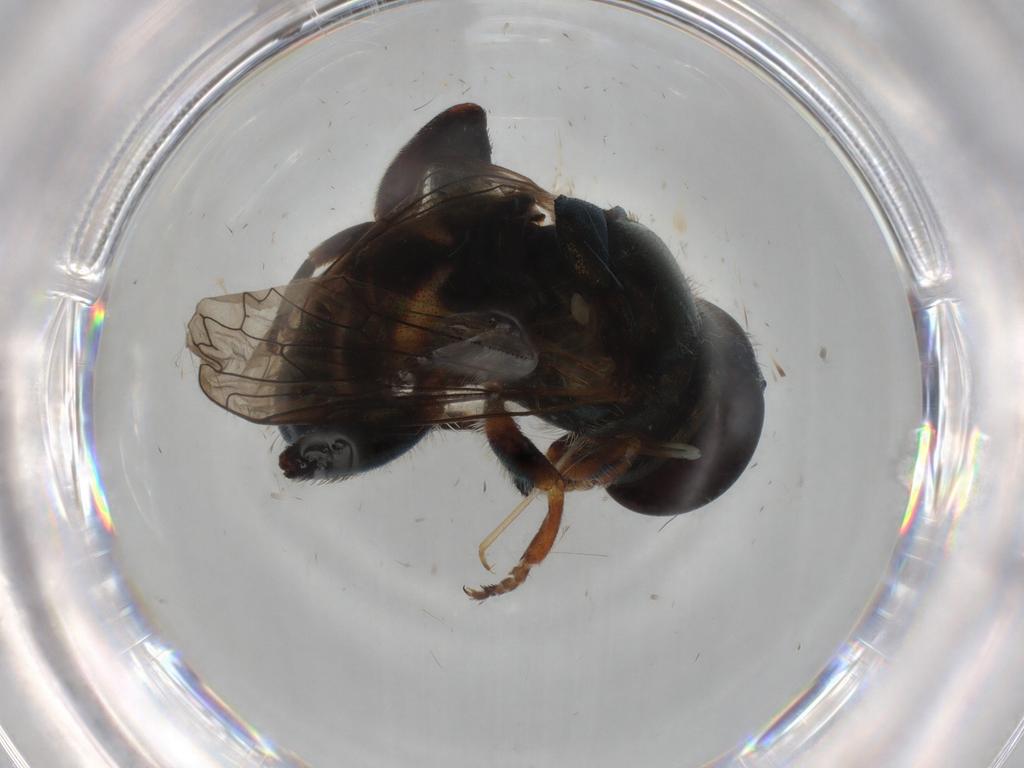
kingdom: Animalia
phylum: Arthropoda
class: Insecta
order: Diptera
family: Syrphidae
